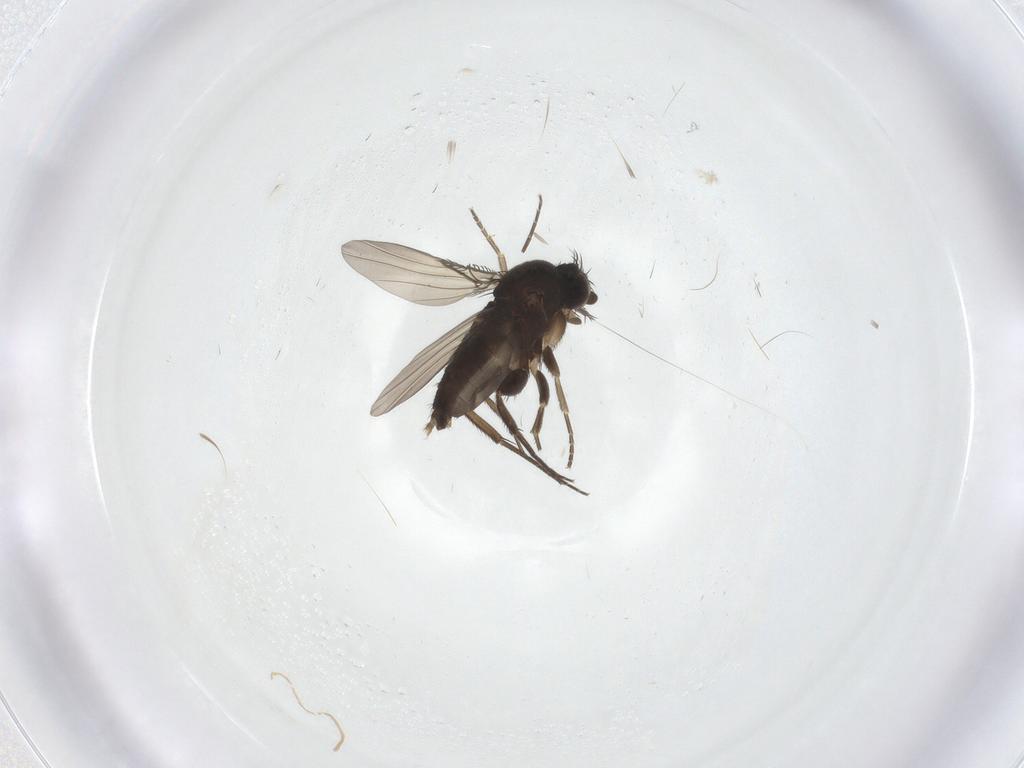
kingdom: Animalia
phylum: Arthropoda
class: Insecta
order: Diptera
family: Phoridae
